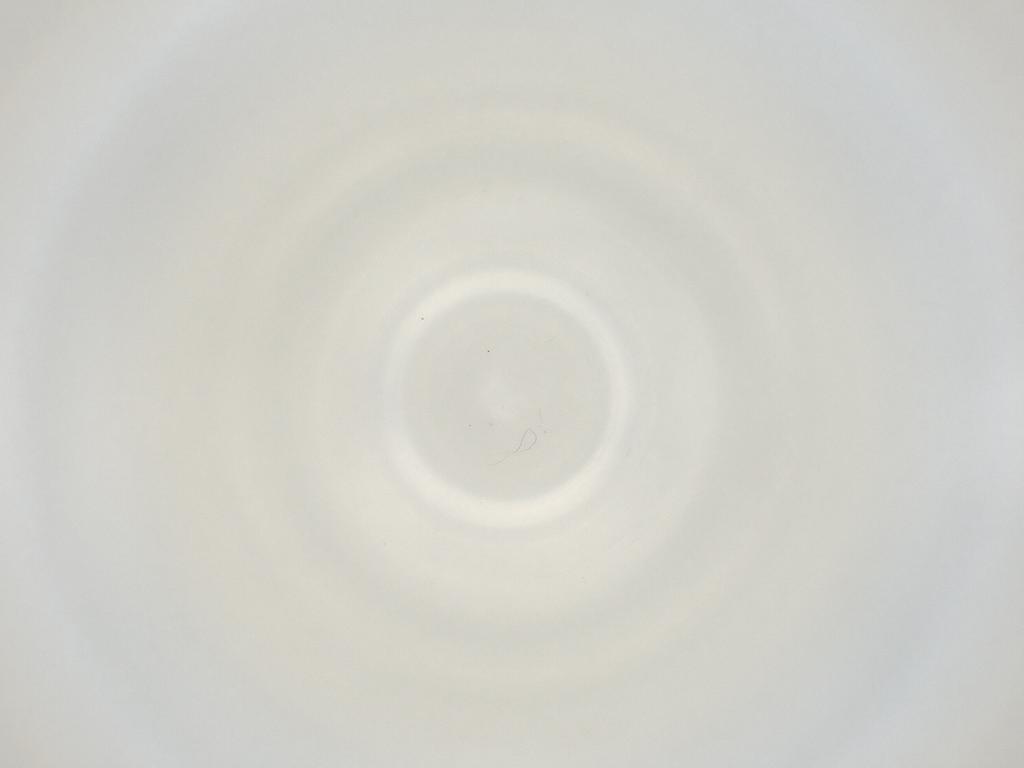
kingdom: Animalia
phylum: Arthropoda
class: Insecta
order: Diptera
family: Cecidomyiidae
